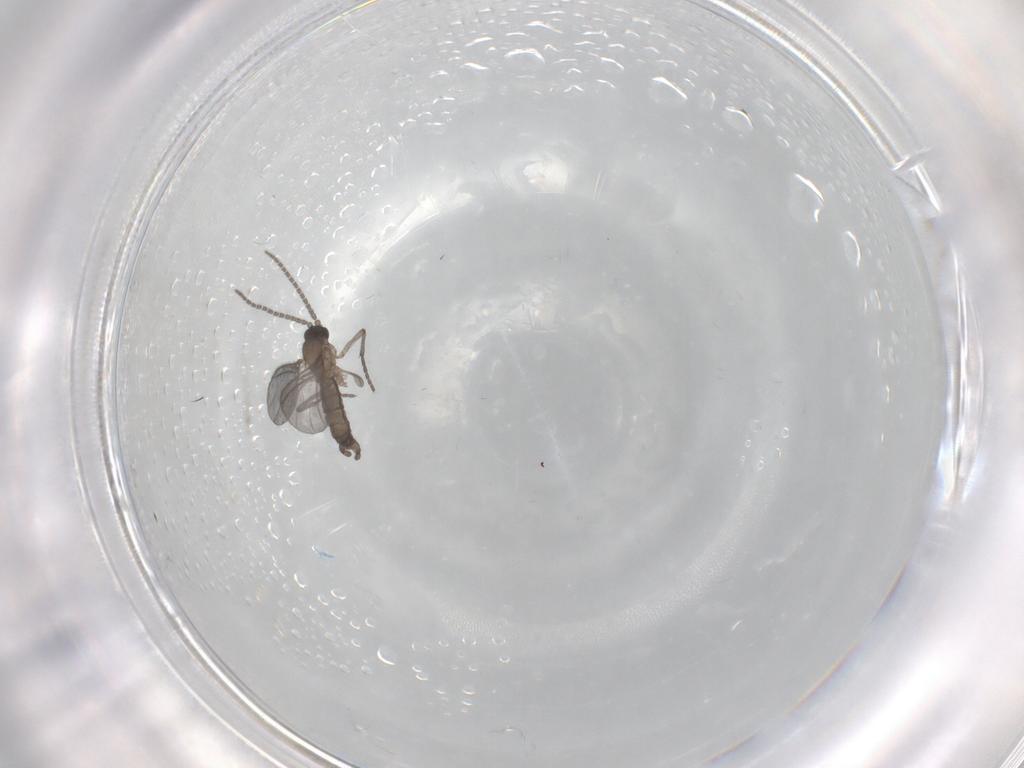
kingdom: Animalia
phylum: Arthropoda
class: Insecta
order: Diptera
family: Sciaridae
